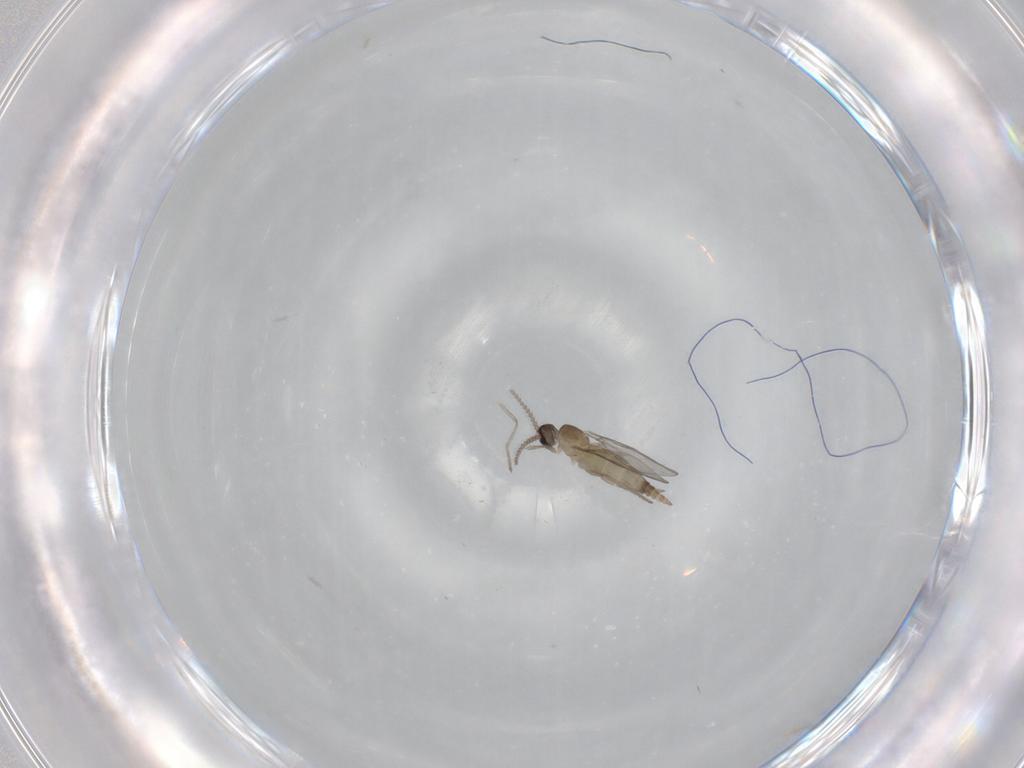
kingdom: Animalia
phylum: Arthropoda
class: Insecta
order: Diptera
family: Cecidomyiidae
